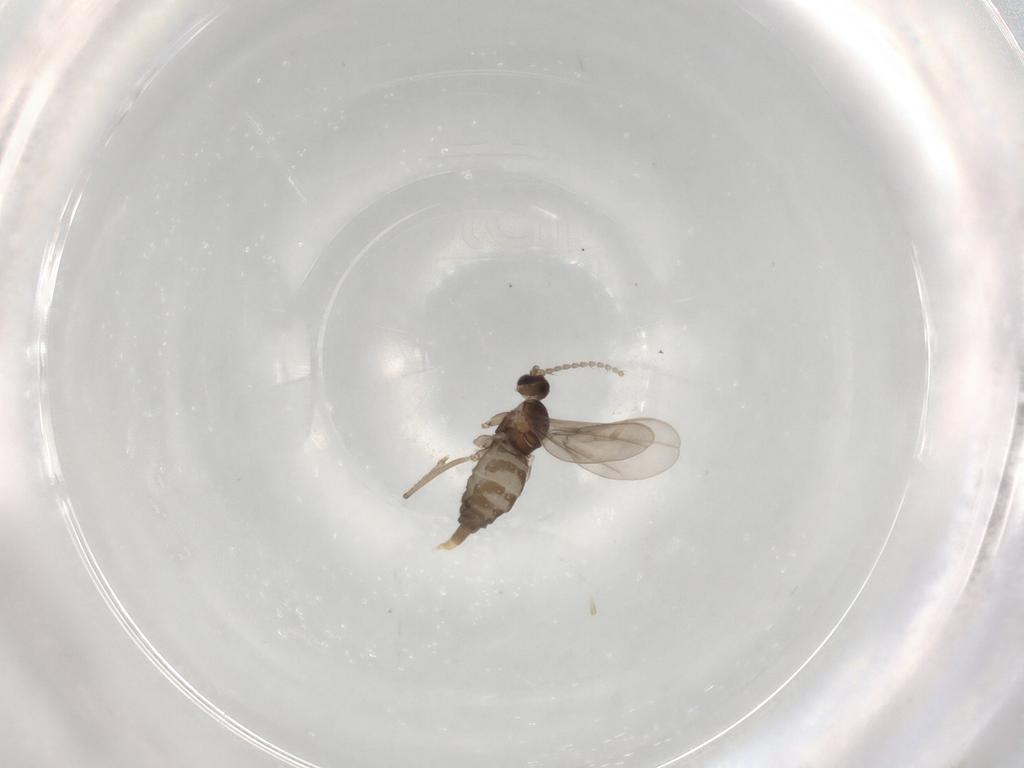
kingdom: Animalia
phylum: Arthropoda
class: Insecta
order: Diptera
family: Cecidomyiidae
